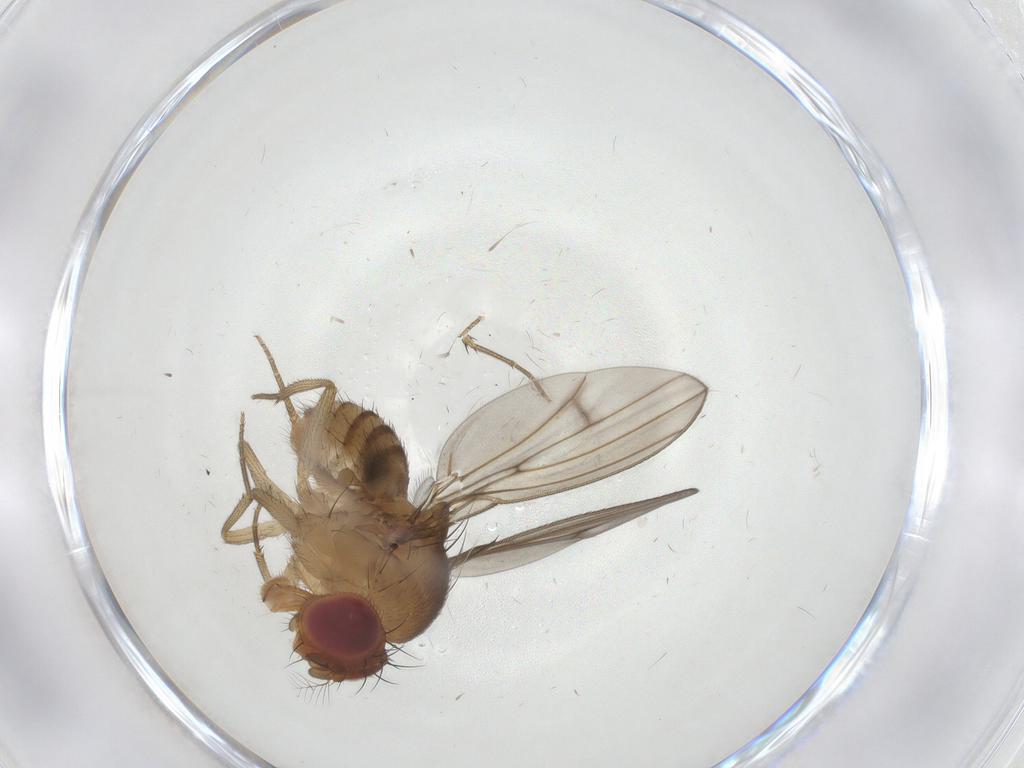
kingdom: Animalia
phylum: Arthropoda
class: Insecta
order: Diptera
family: Drosophilidae
